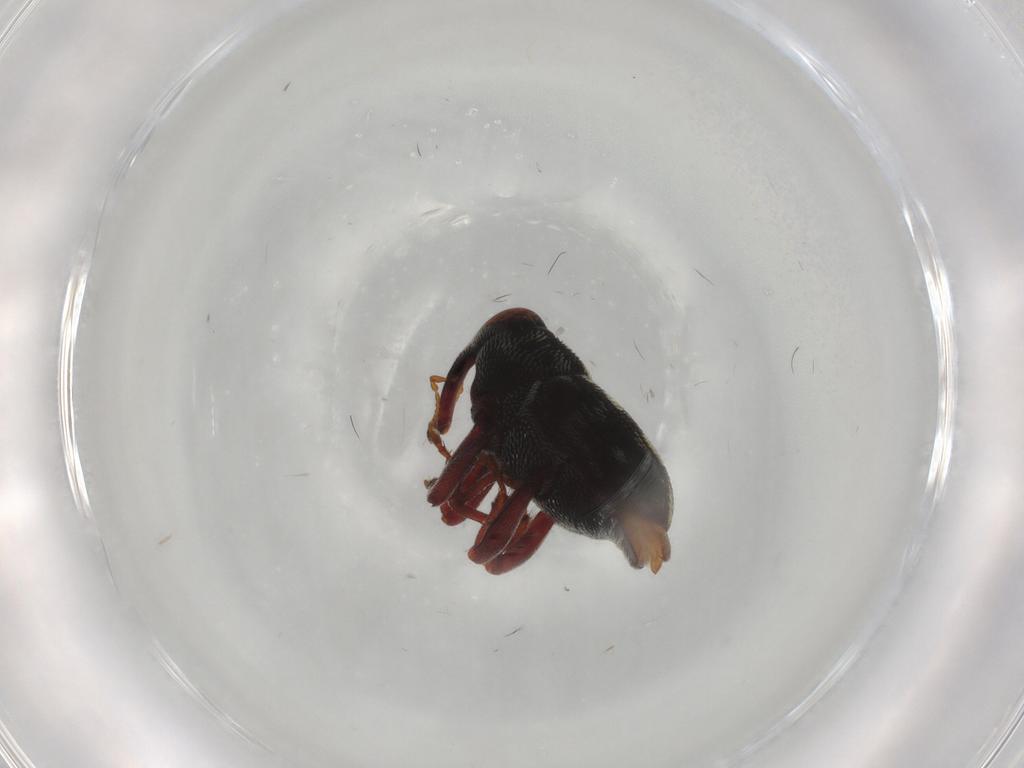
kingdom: Animalia
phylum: Arthropoda
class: Insecta
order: Coleoptera
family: Curculionidae
